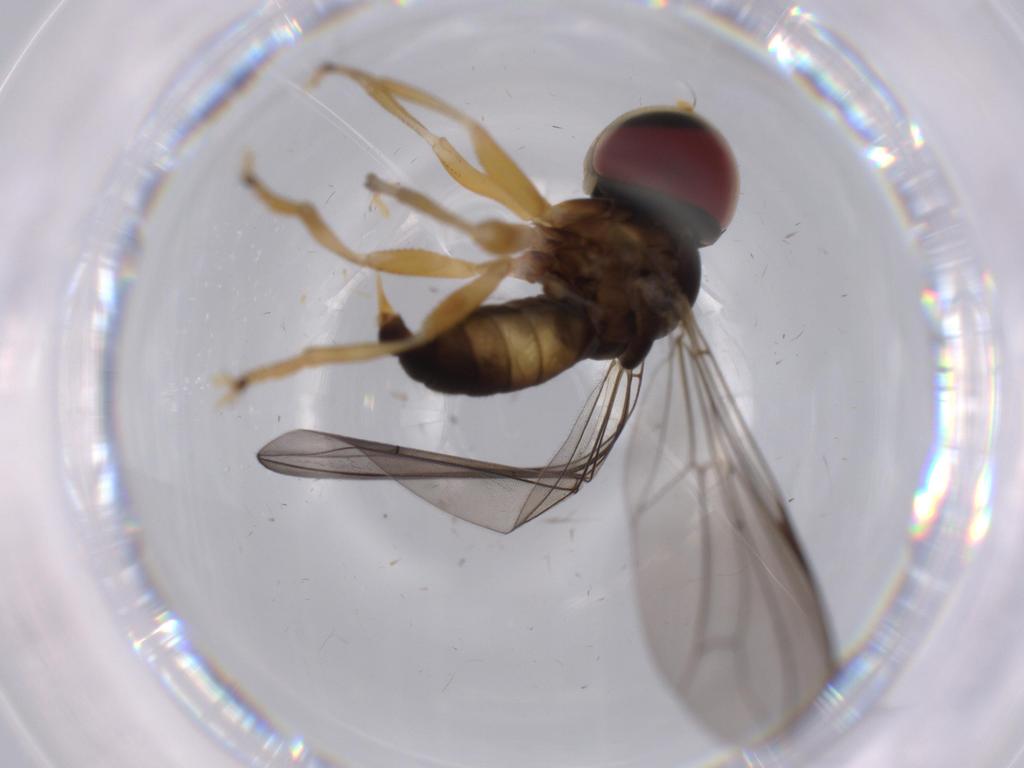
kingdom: Animalia
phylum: Arthropoda
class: Insecta
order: Diptera
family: Pipunculidae
